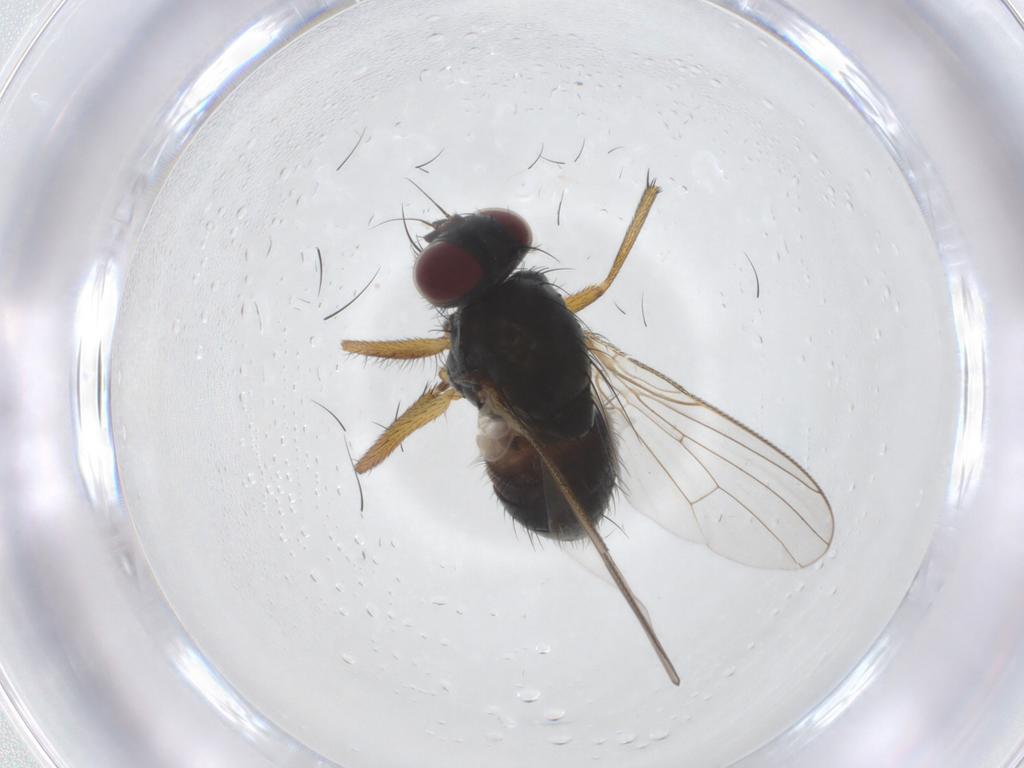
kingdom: Animalia
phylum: Arthropoda
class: Insecta
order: Diptera
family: Muscidae
